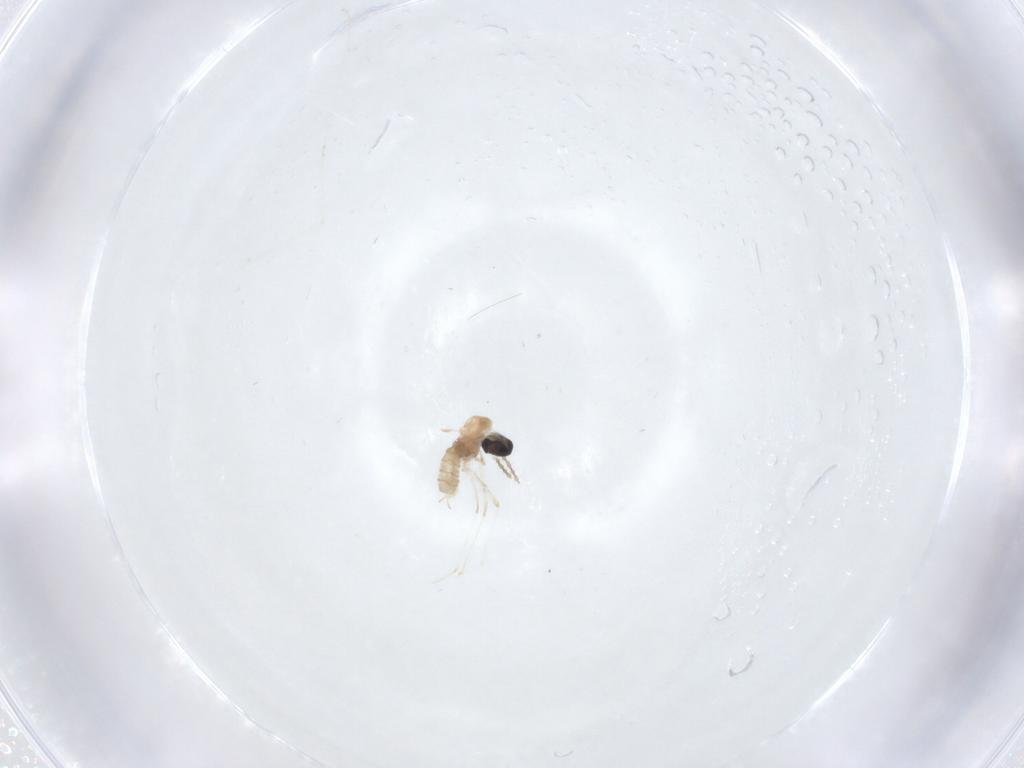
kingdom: Animalia
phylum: Arthropoda
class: Insecta
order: Diptera
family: Cecidomyiidae
